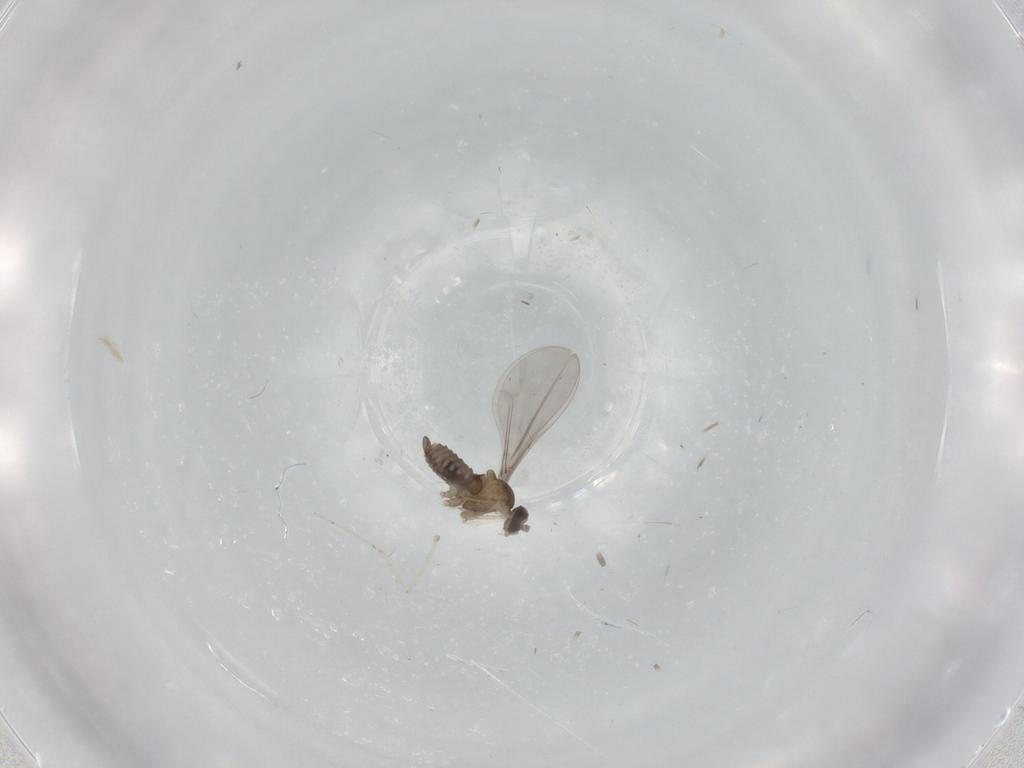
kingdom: Animalia
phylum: Arthropoda
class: Insecta
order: Diptera
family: Cecidomyiidae
